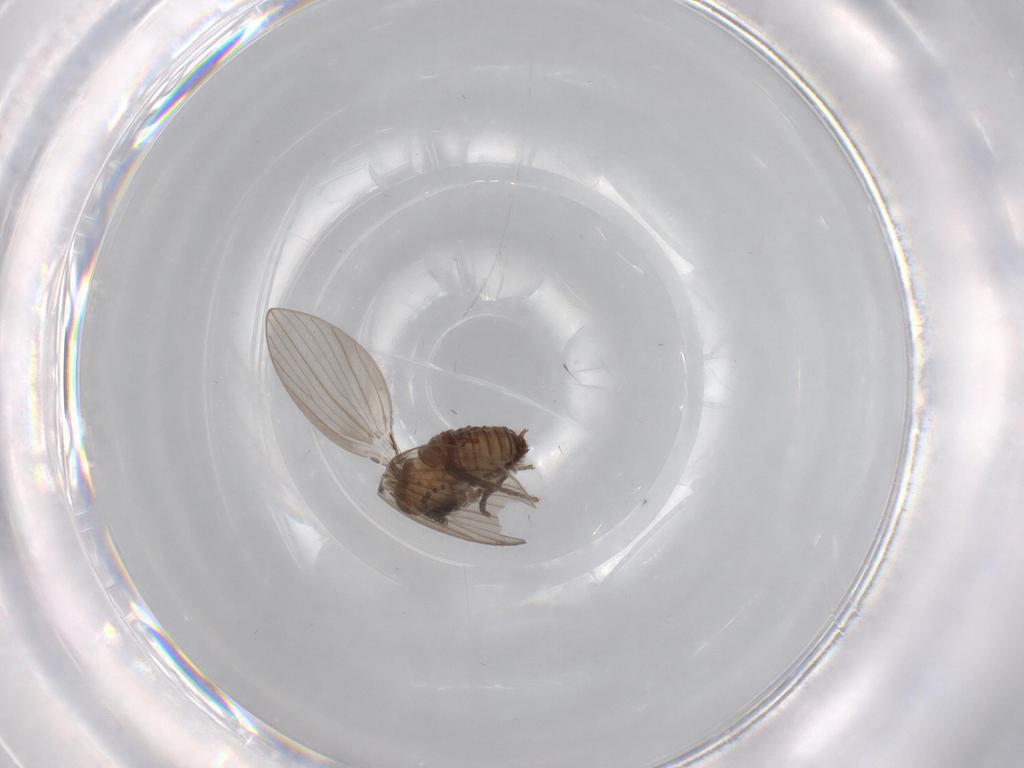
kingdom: Animalia
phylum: Arthropoda
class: Insecta
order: Diptera
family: Psychodidae
